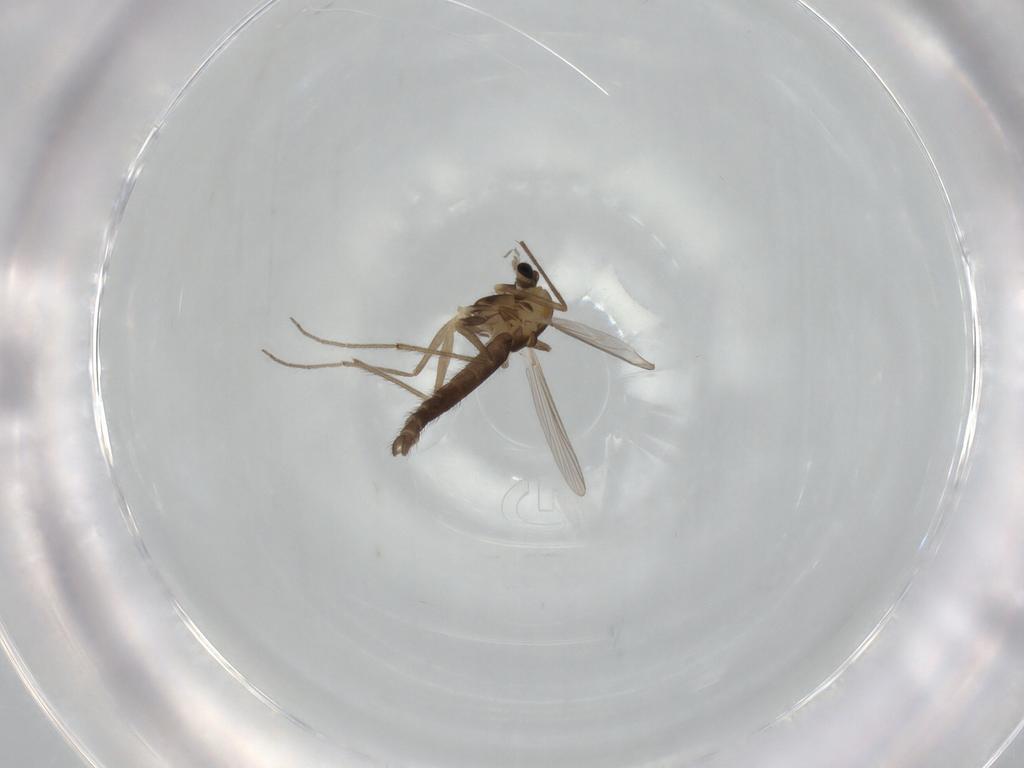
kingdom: Animalia
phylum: Arthropoda
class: Insecta
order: Diptera
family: Chironomidae
